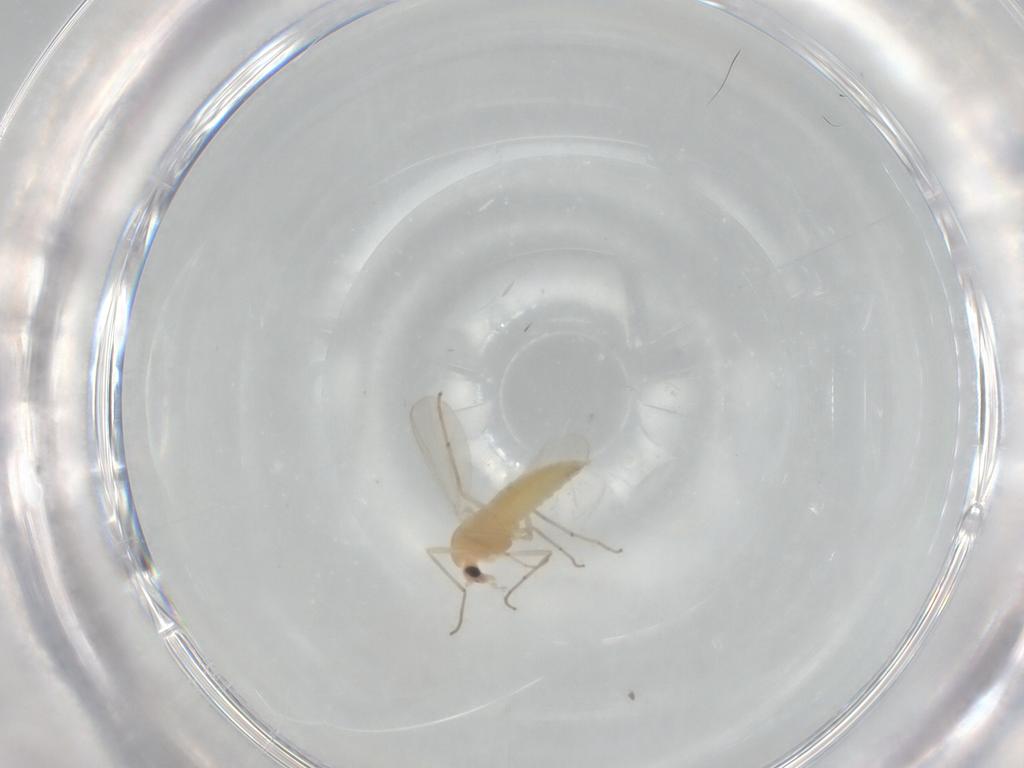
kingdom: Animalia
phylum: Arthropoda
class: Insecta
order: Diptera
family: Chironomidae
